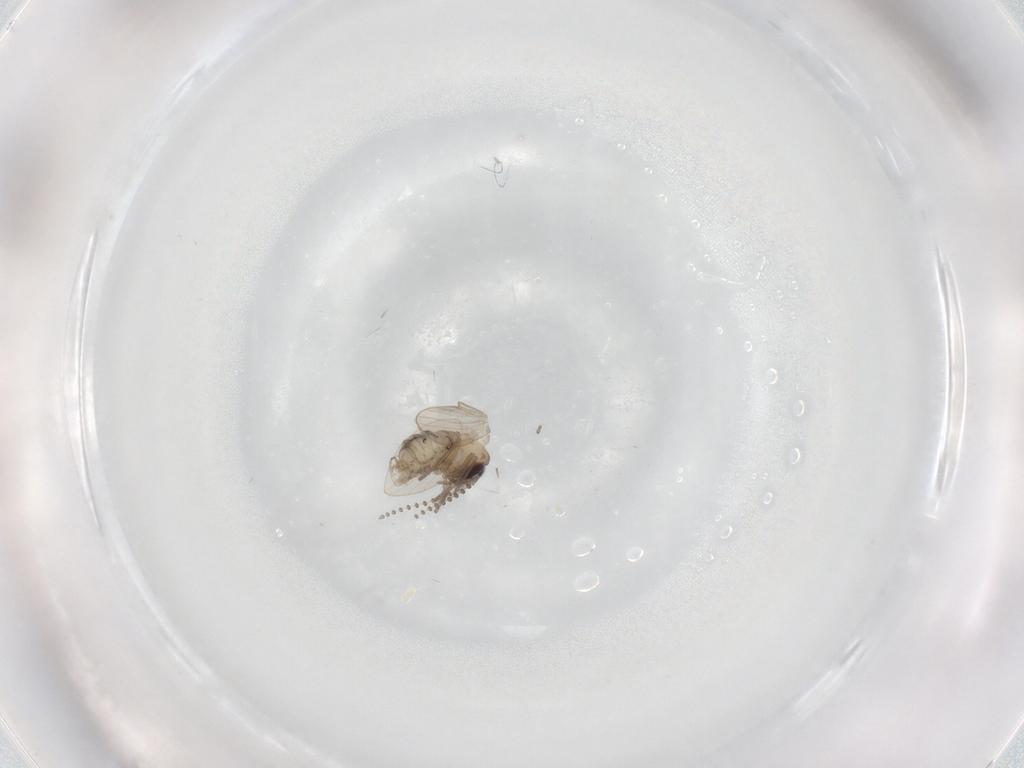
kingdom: Animalia
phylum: Arthropoda
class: Insecta
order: Diptera
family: Psychodidae
